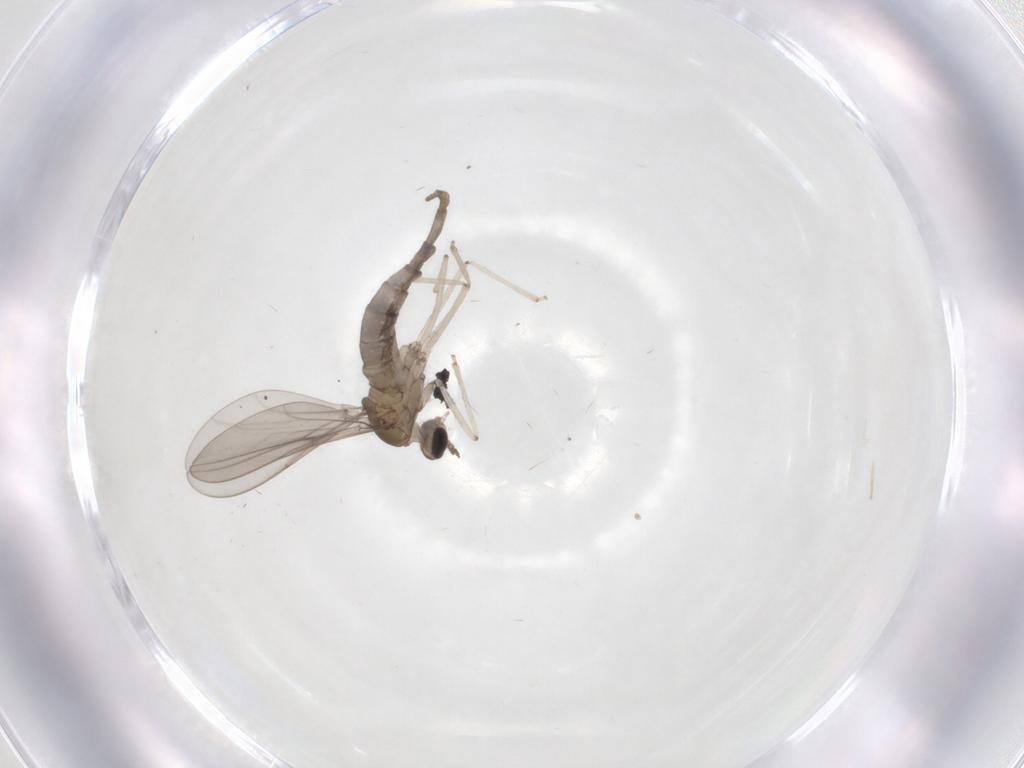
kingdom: Animalia
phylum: Arthropoda
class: Insecta
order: Diptera
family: Cecidomyiidae
